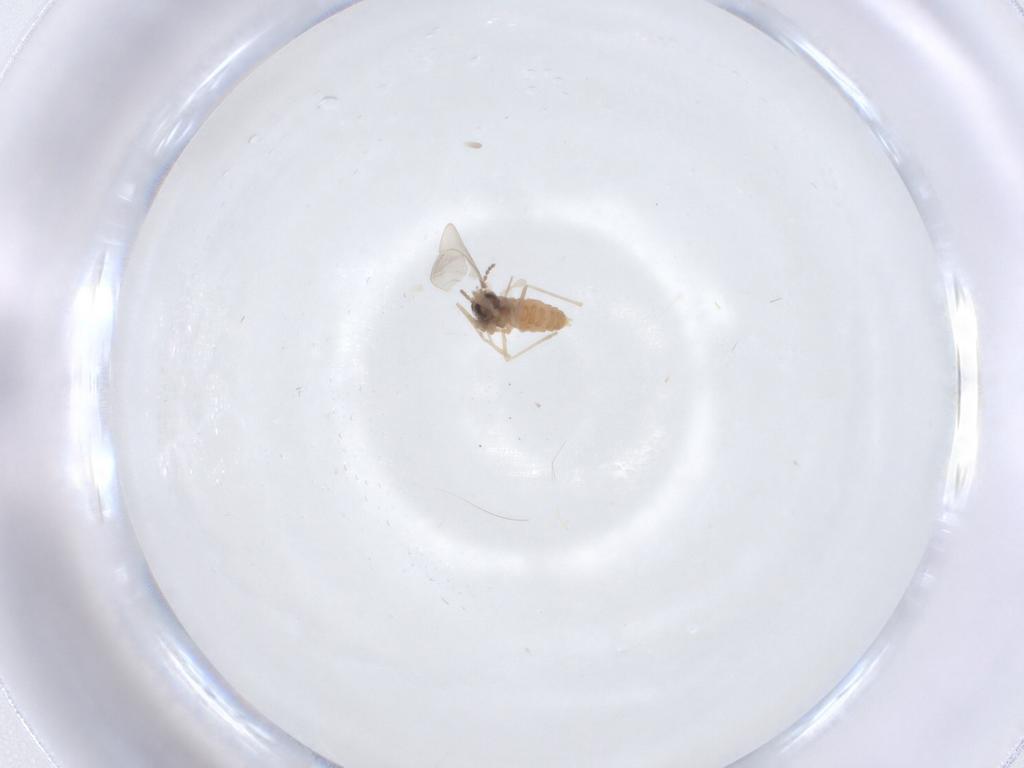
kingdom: Animalia
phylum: Arthropoda
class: Insecta
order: Diptera
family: Cecidomyiidae
